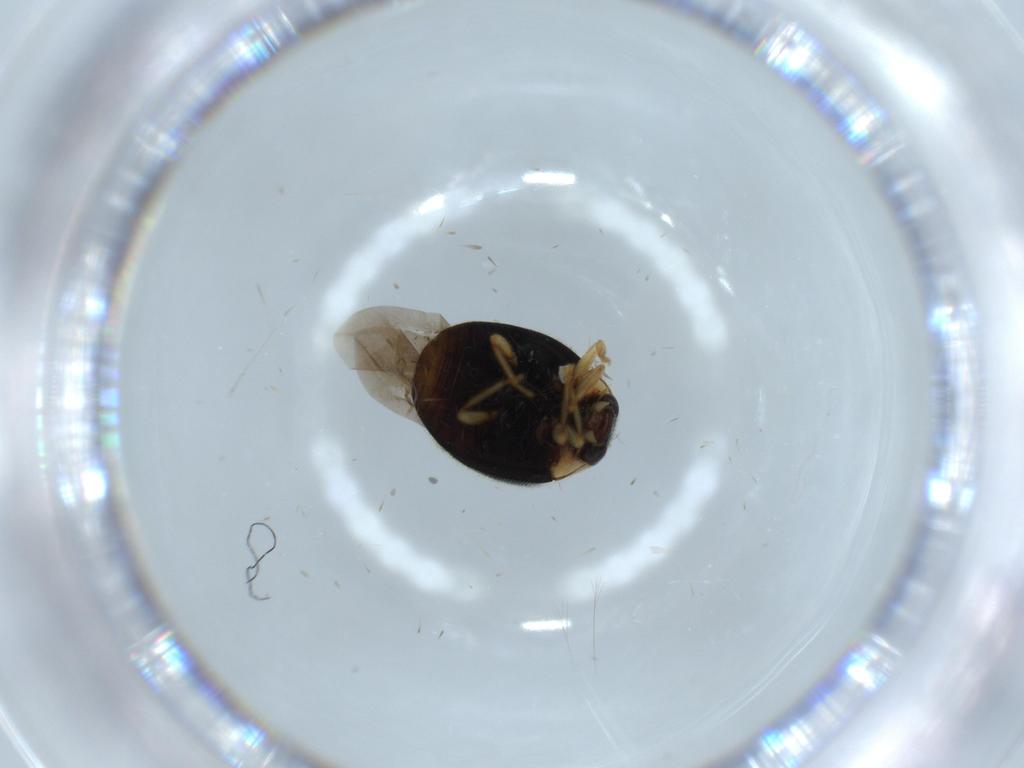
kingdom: Animalia
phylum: Arthropoda
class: Insecta
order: Coleoptera
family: Coccinellidae
